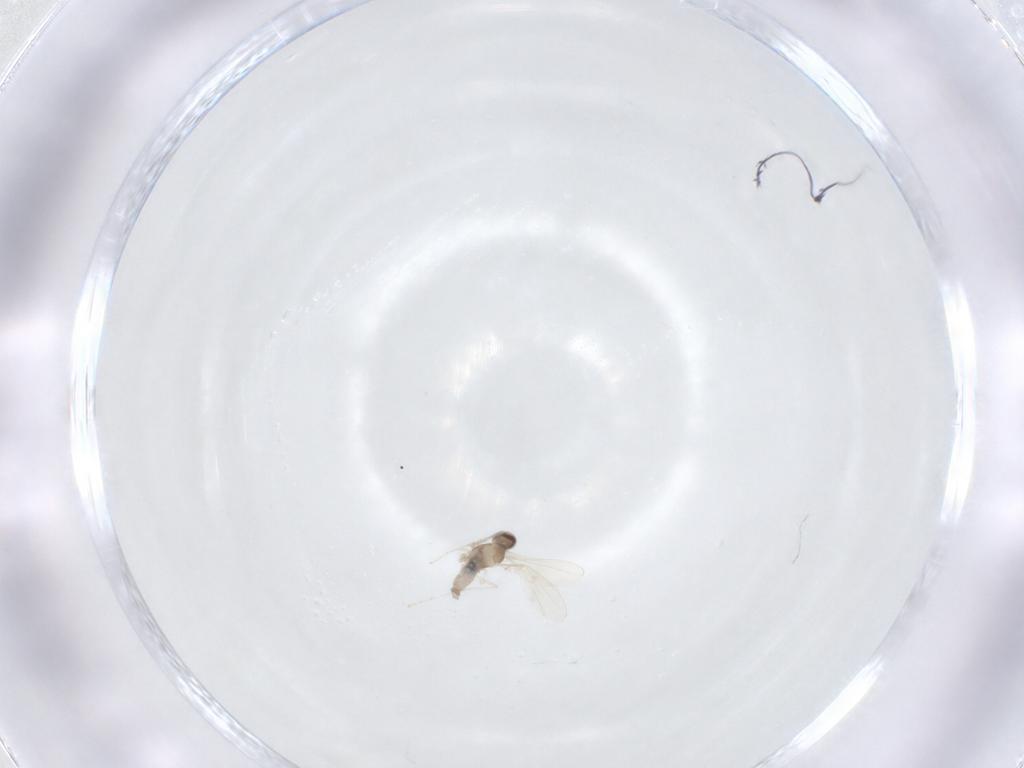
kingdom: Animalia
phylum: Arthropoda
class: Insecta
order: Diptera
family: Cecidomyiidae
